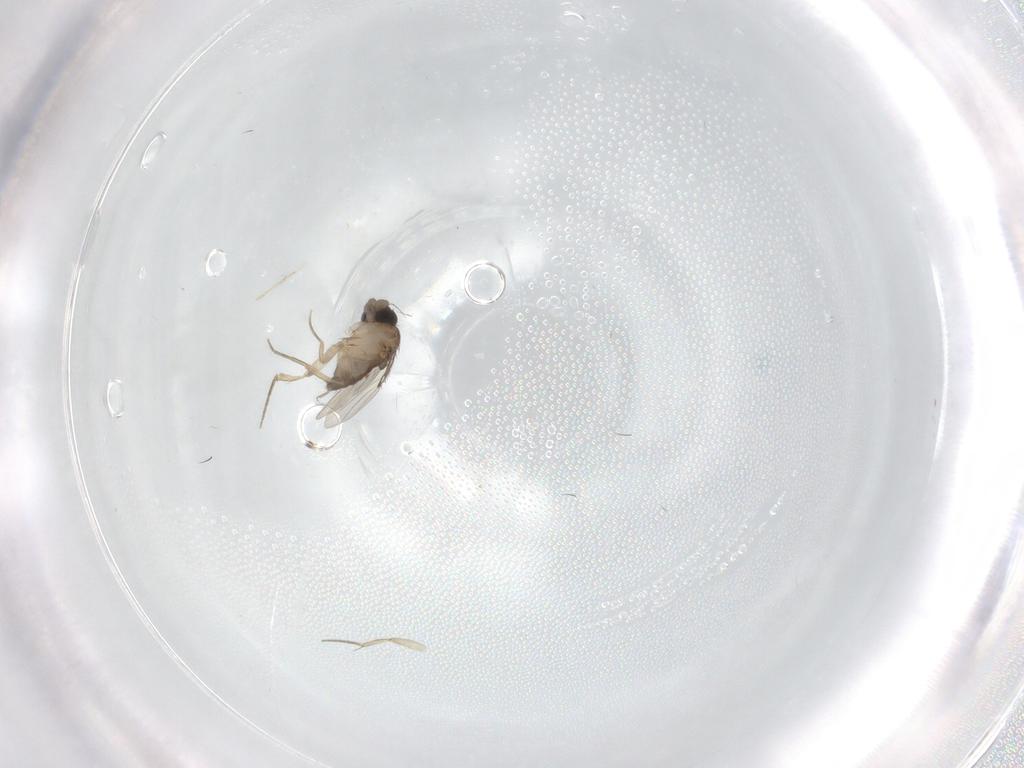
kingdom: Animalia
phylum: Arthropoda
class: Insecta
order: Diptera
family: Phoridae
